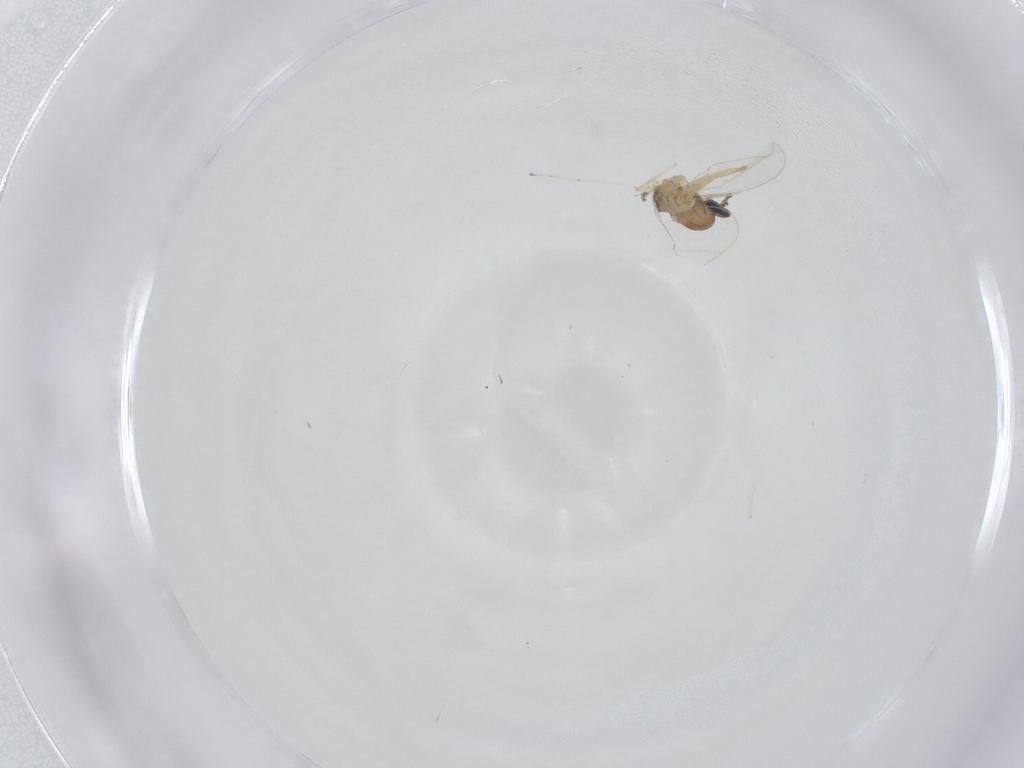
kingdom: Animalia
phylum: Arthropoda
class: Insecta
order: Diptera
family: Cecidomyiidae
